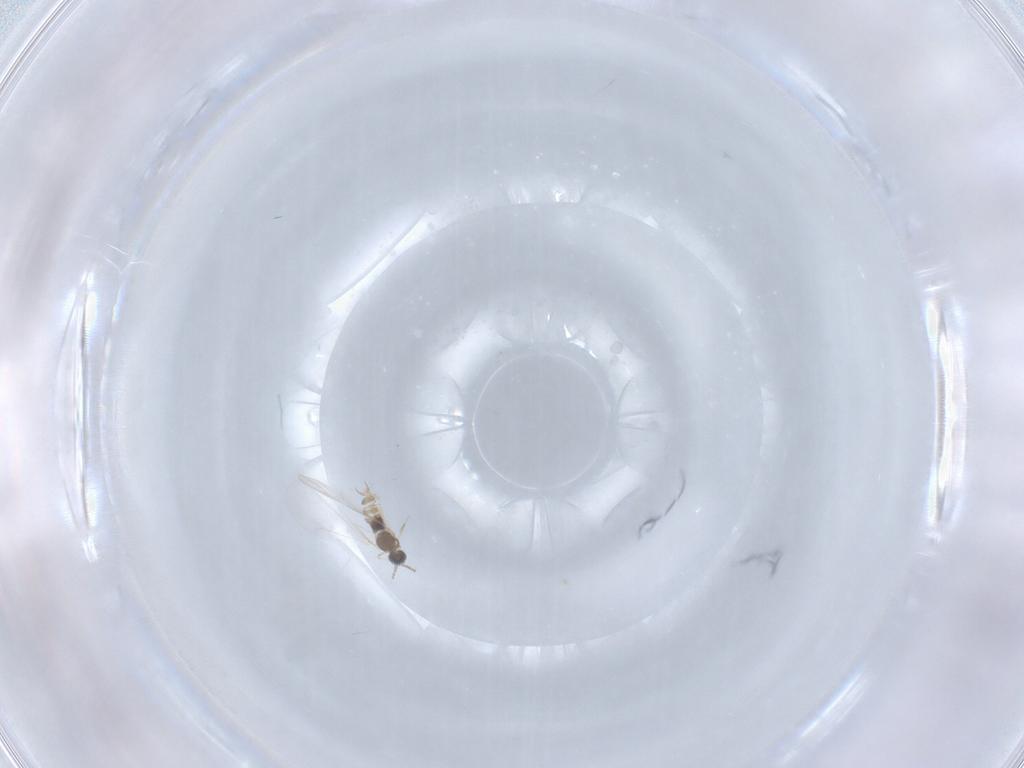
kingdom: Animalia
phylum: Arthropoda
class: Insecta
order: Diptera
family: Cecidomyiidae
